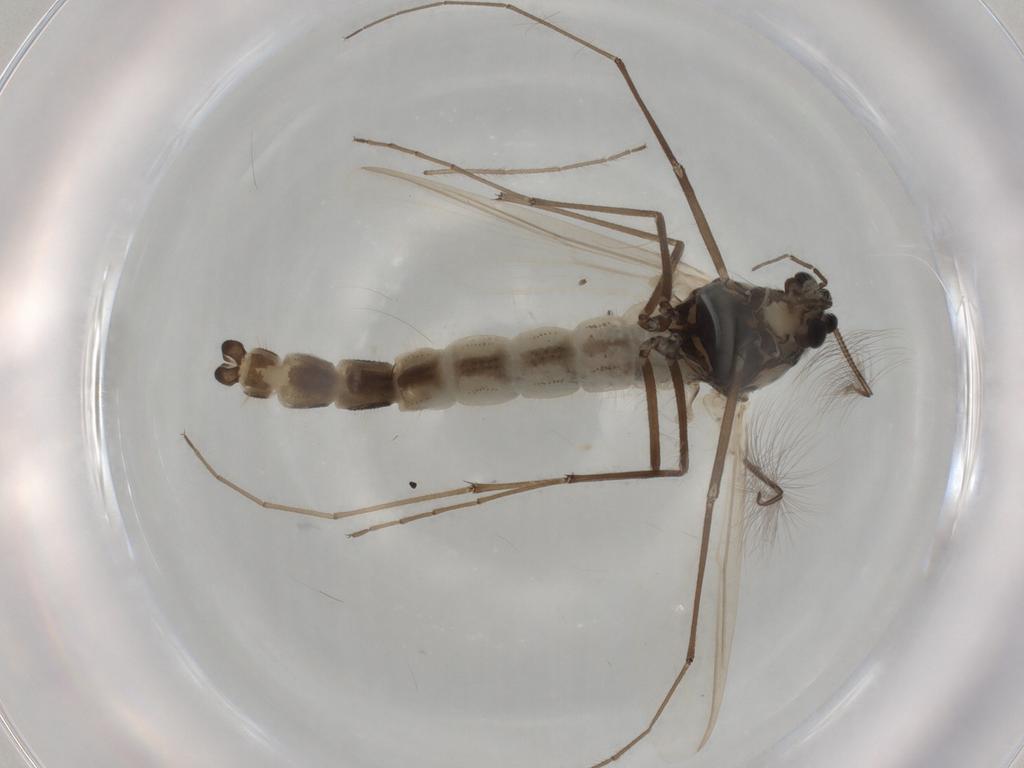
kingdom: Animalia
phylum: Arthropoda
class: Insecta
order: Diptera
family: Chironomidae
